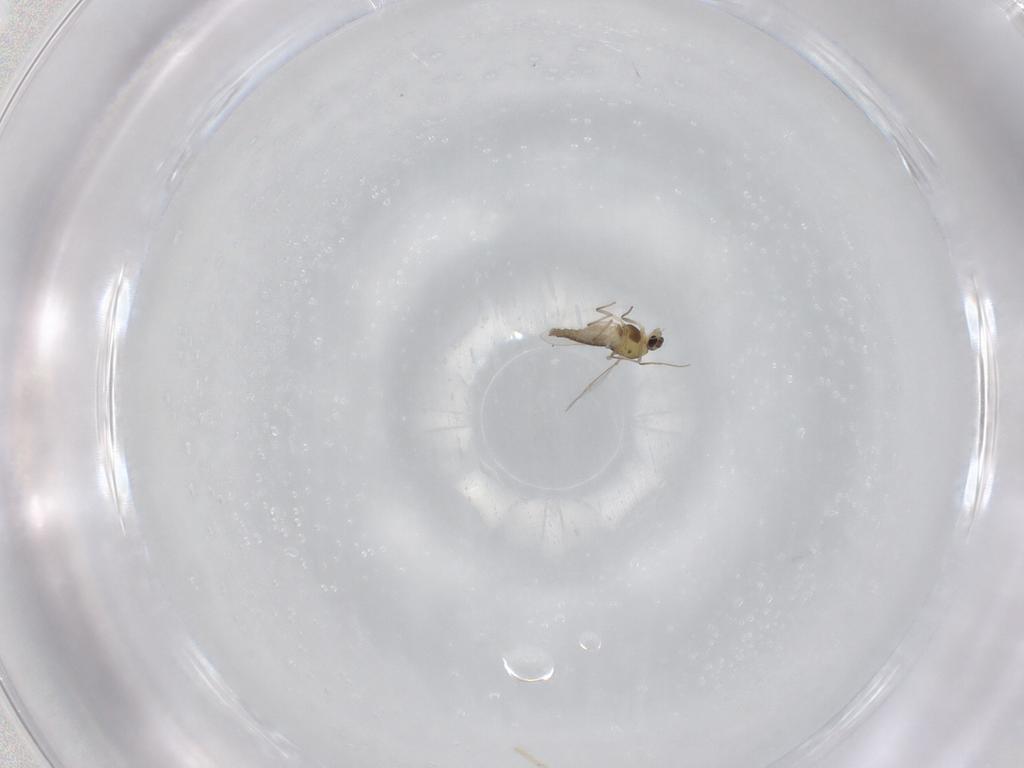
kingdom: Animalia
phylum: Arthropoda
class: Insecta
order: Diptera
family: Chironomidae
